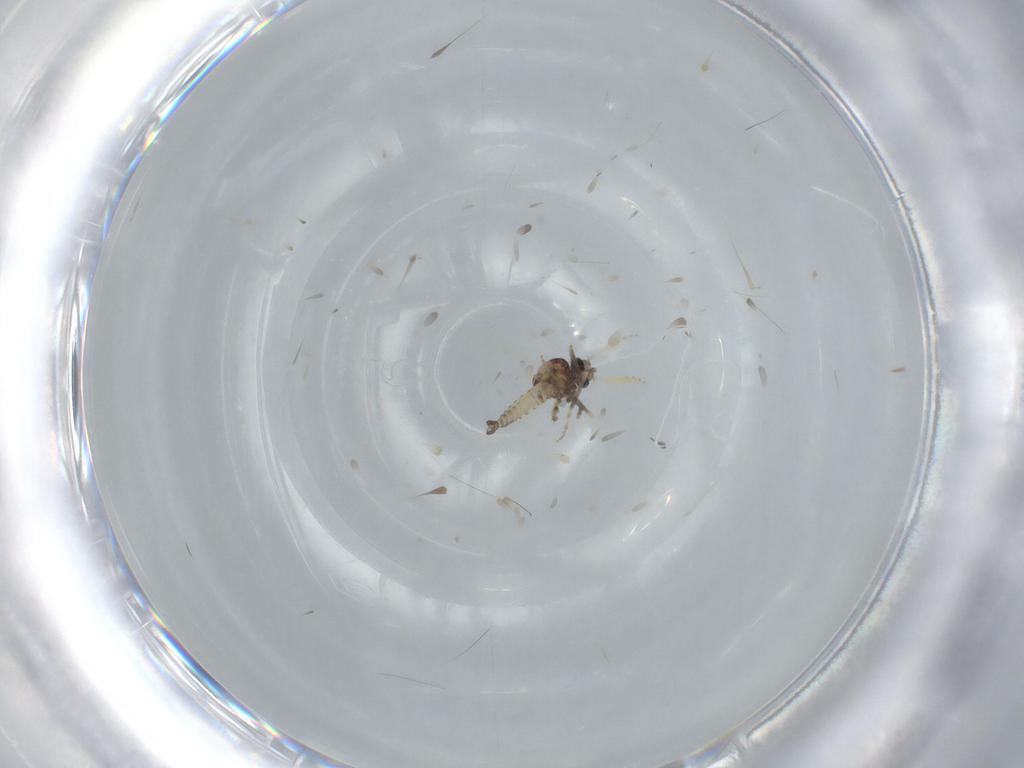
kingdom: Animalia
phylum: Arthropoda
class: Insecta
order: Diptera
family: Ceratopogonidae
